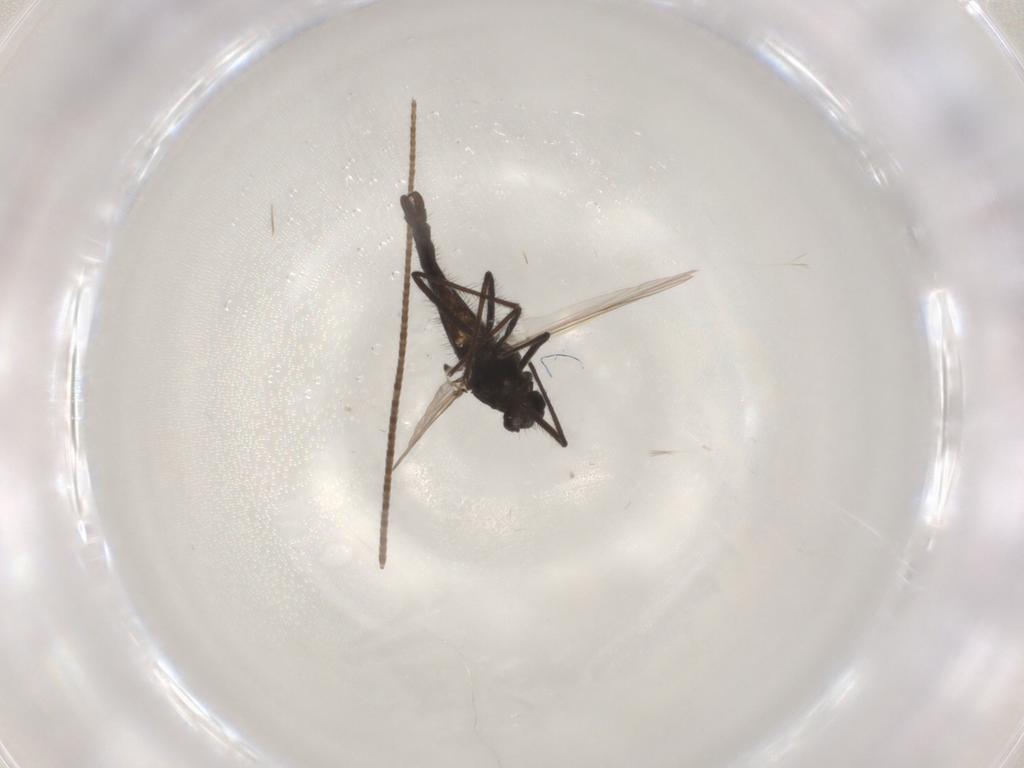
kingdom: Animalia
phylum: Arthropoda
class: Insecta
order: Diptera
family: Chironomidae
